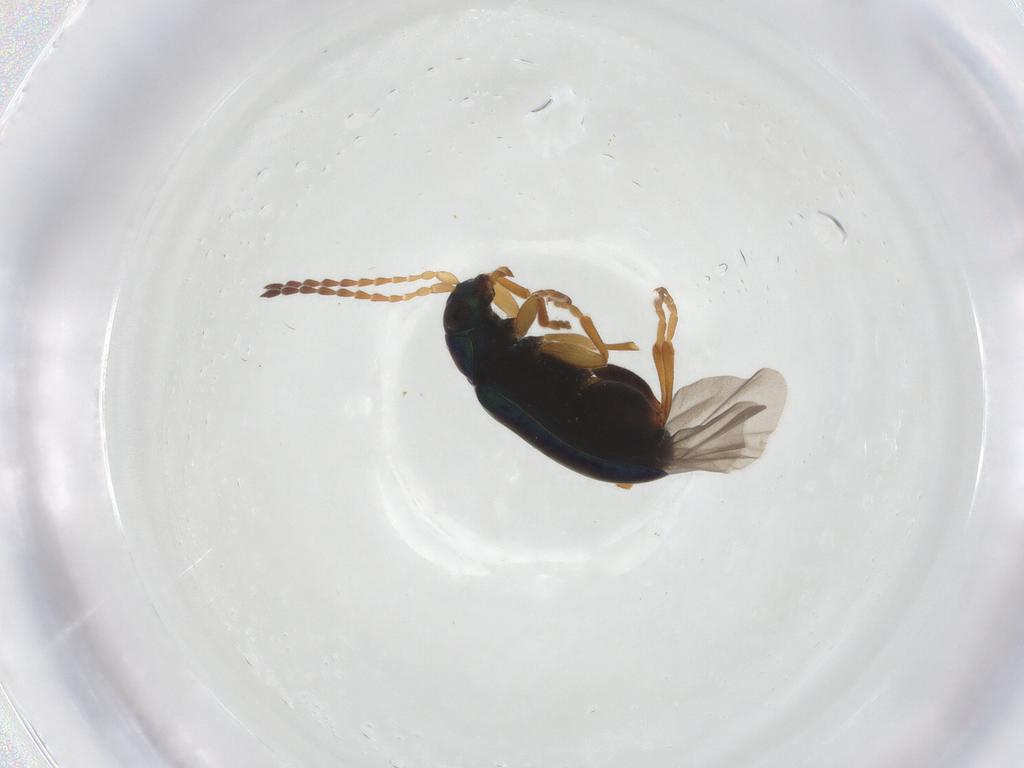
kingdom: Animalia
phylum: Arthropoda
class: Insecta
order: Coleoptera
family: Chrysomelidae
